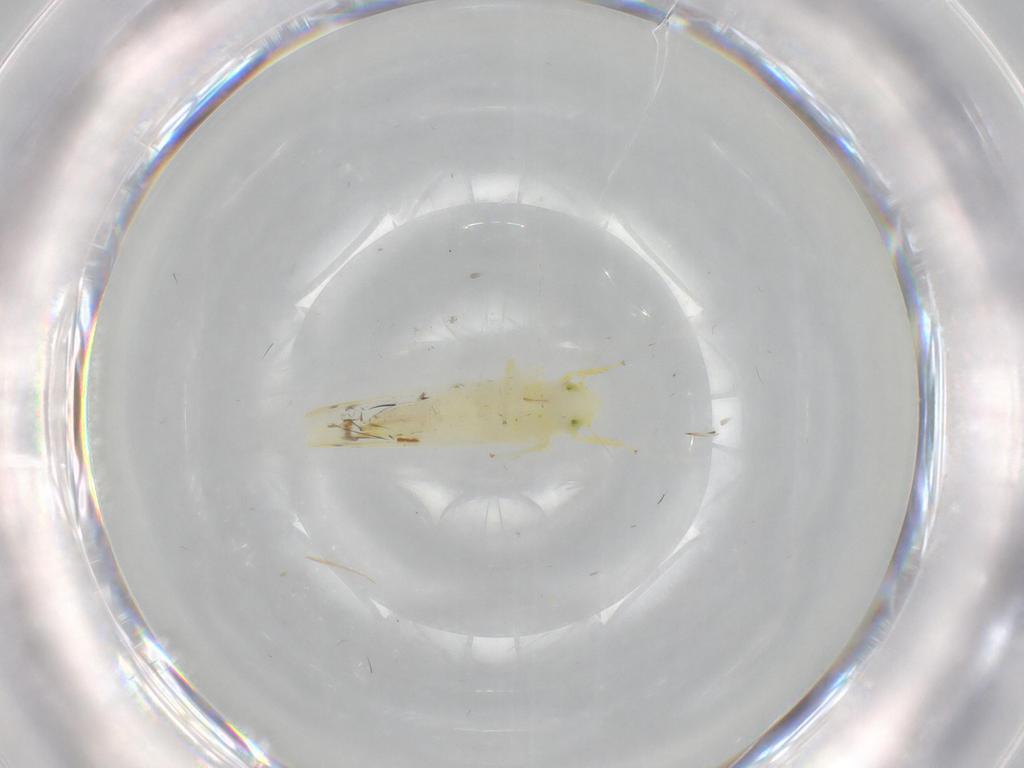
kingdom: Animalia
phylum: Arthropoda
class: Insecta
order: Hemiptera
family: Cicadellidae
